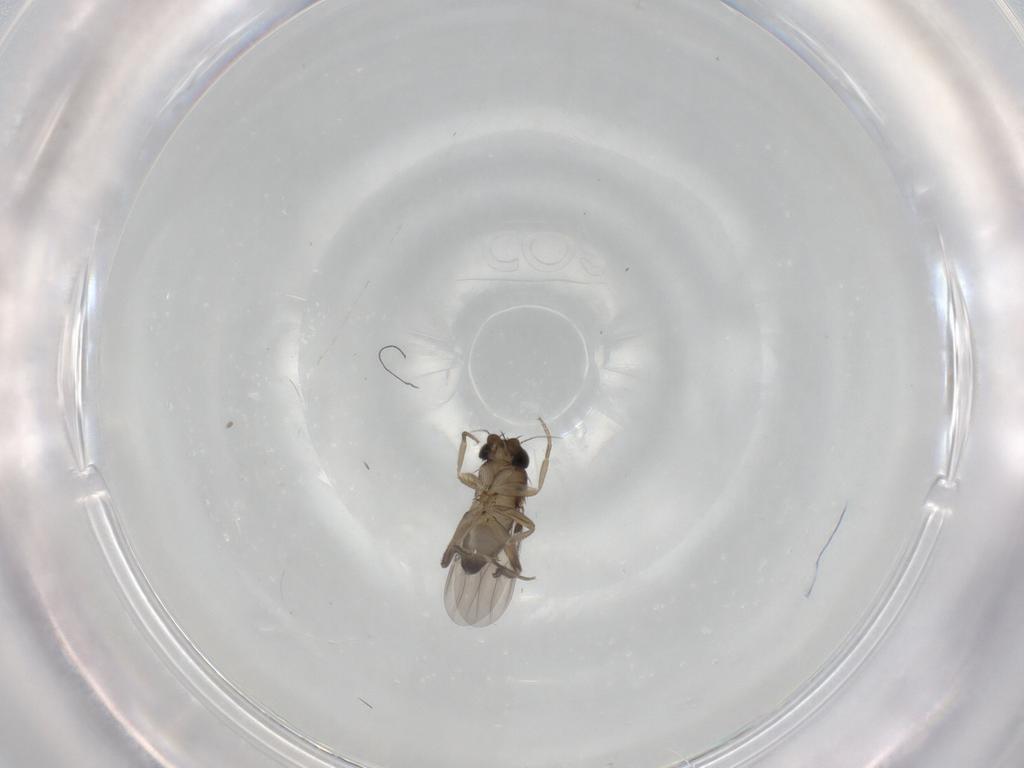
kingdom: Animalia
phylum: Arthropoda
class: Insecta
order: Diptera
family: Phoridae
